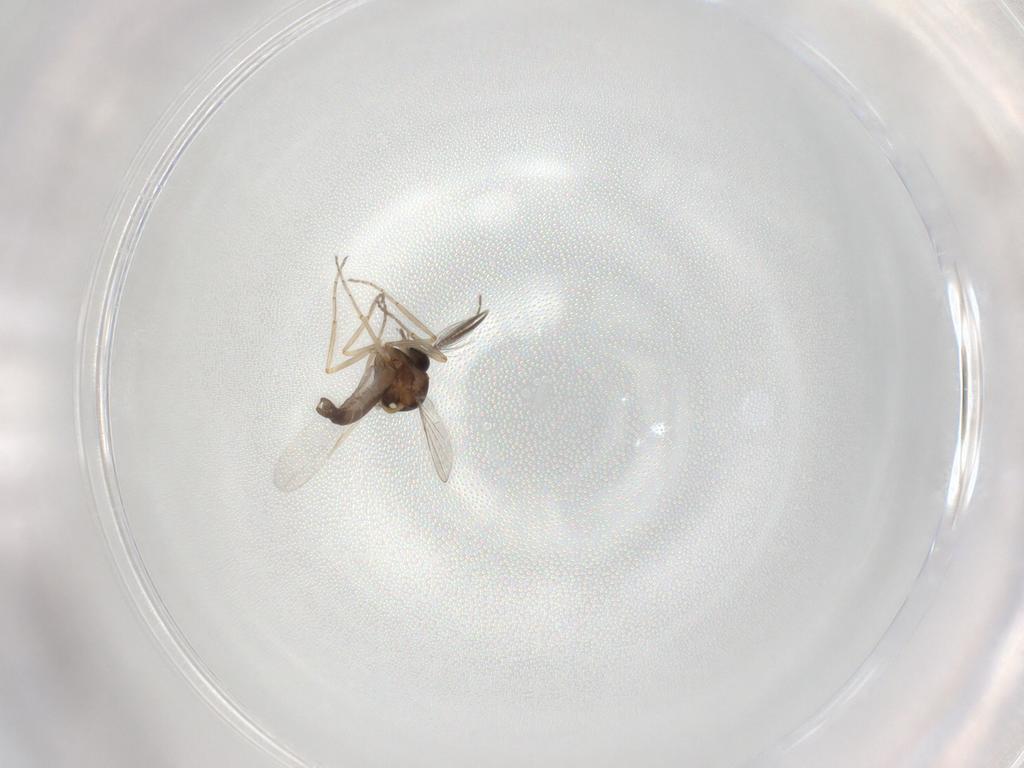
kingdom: Animalia
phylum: Arthropoda
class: Insecta
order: Diptera
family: Ceratopogonidae
